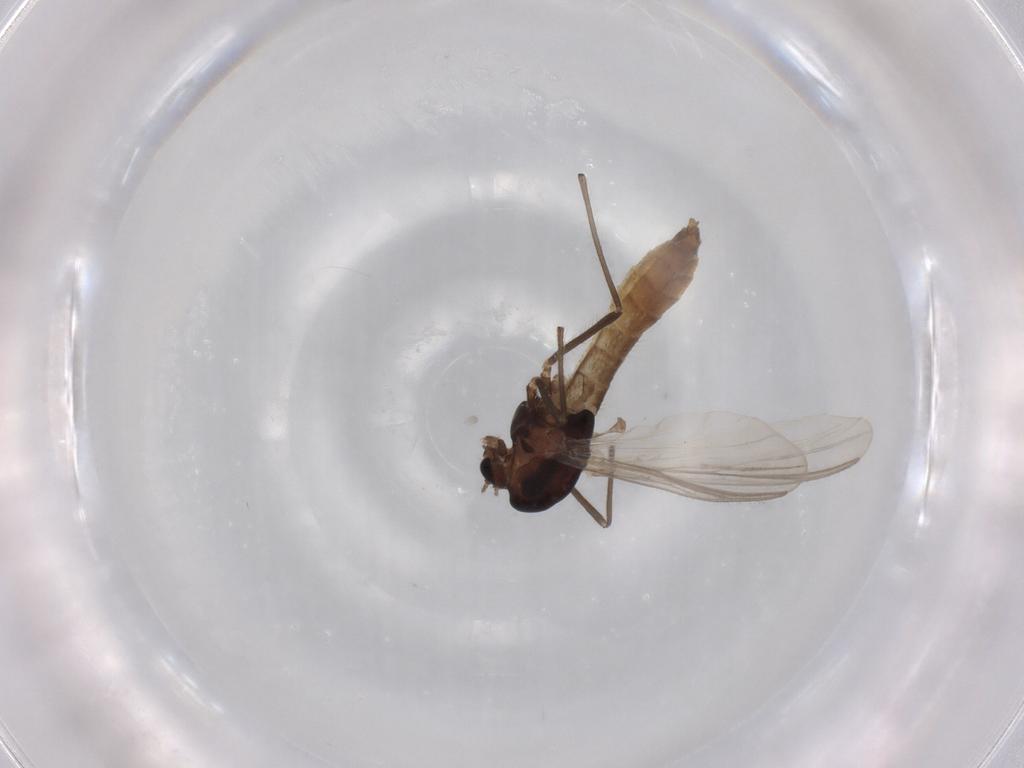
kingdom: Animalia
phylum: Arthropoda
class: Insecta
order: Diptera
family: Chironomidae
